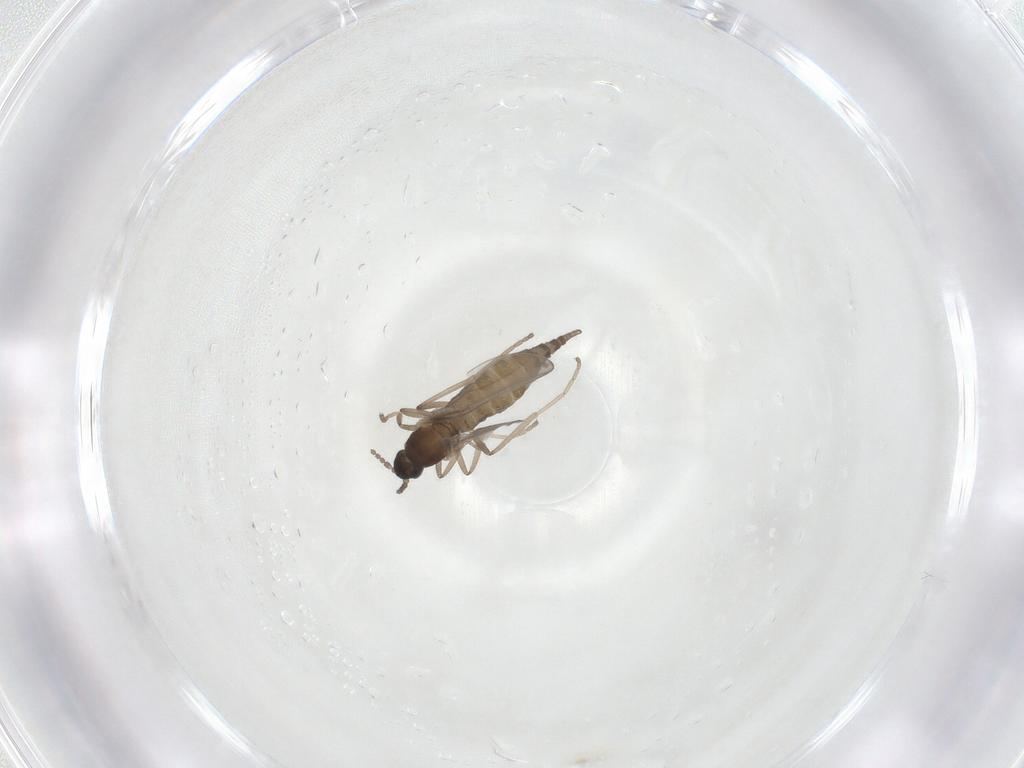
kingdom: Animalia
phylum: Arthropoda
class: Insecta
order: Diptera
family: Cecidomyiidae
